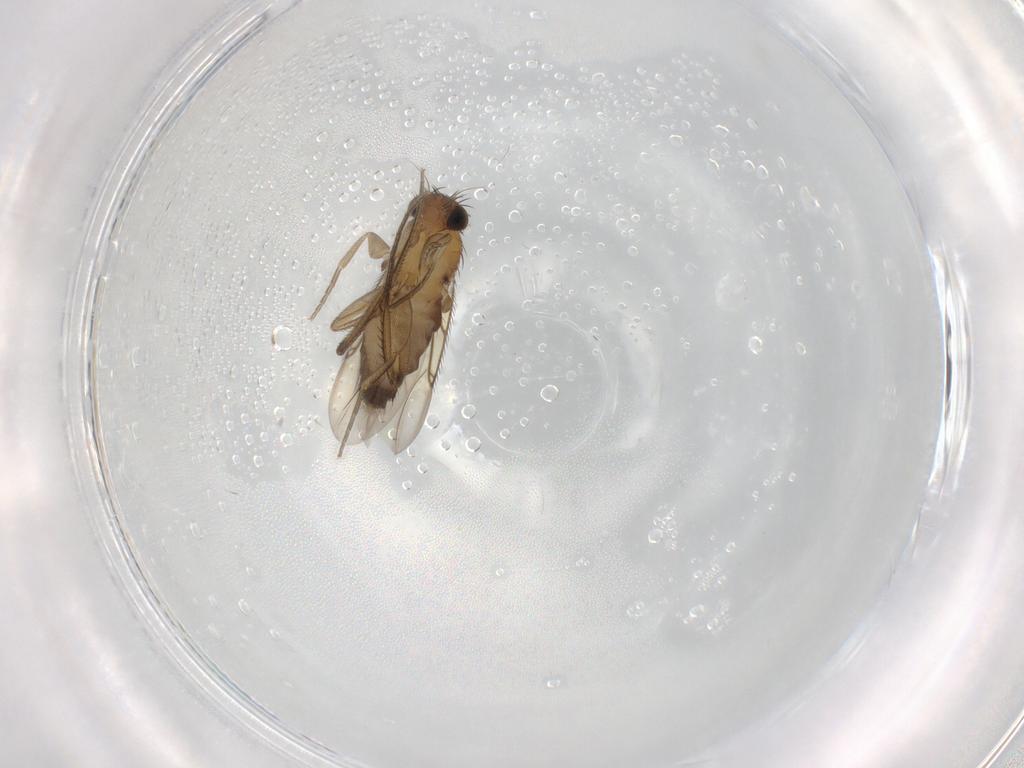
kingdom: Animalia
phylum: Arthropoda
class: Insecta
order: Diptera
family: Phoridae
